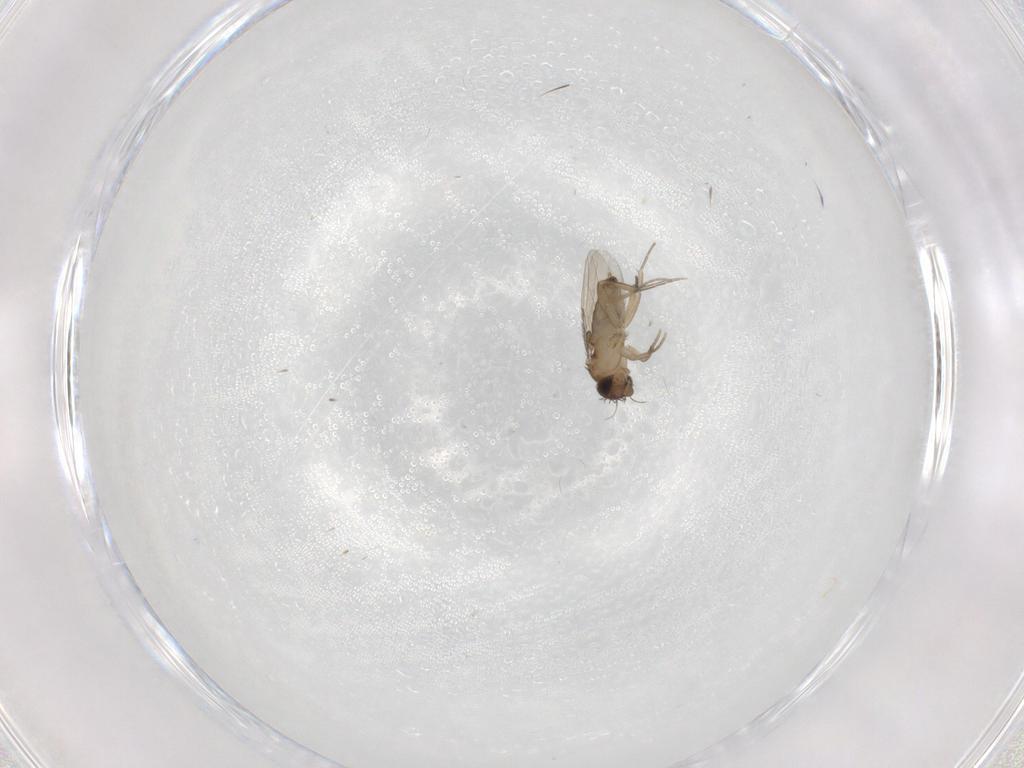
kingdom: Animalia
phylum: Arthropoda
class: Insecta
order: Diptera
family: Phoridae
